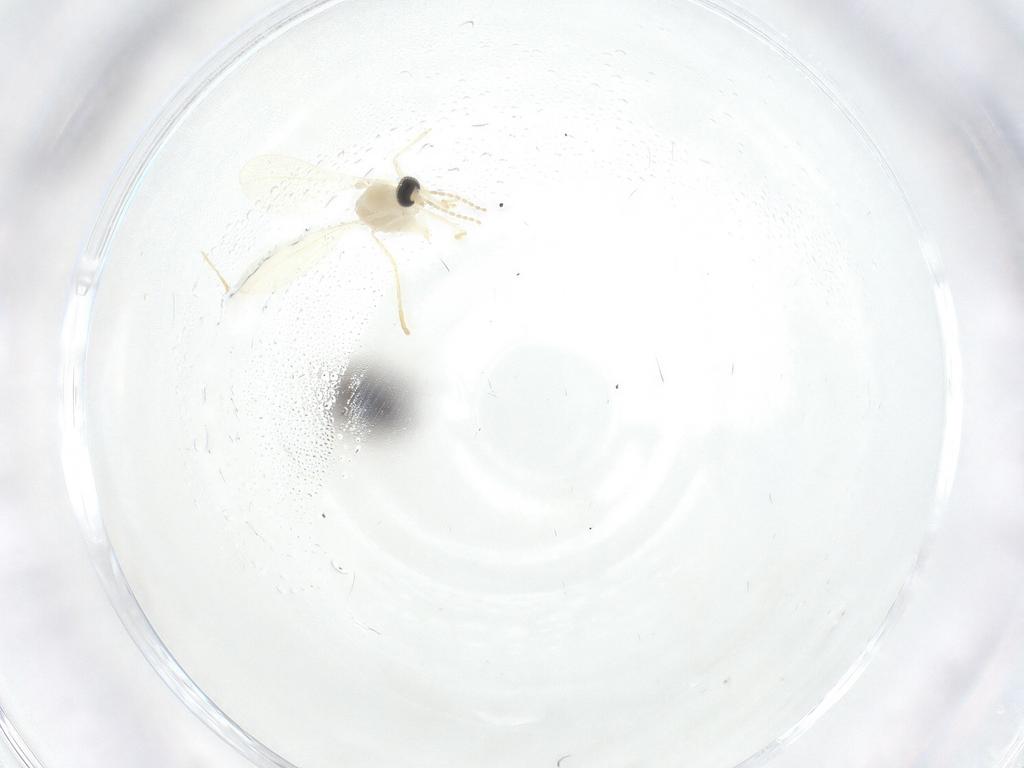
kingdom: Animalia
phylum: Arthropoda
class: Insecta
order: Diptera
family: Cecidomyiidae
